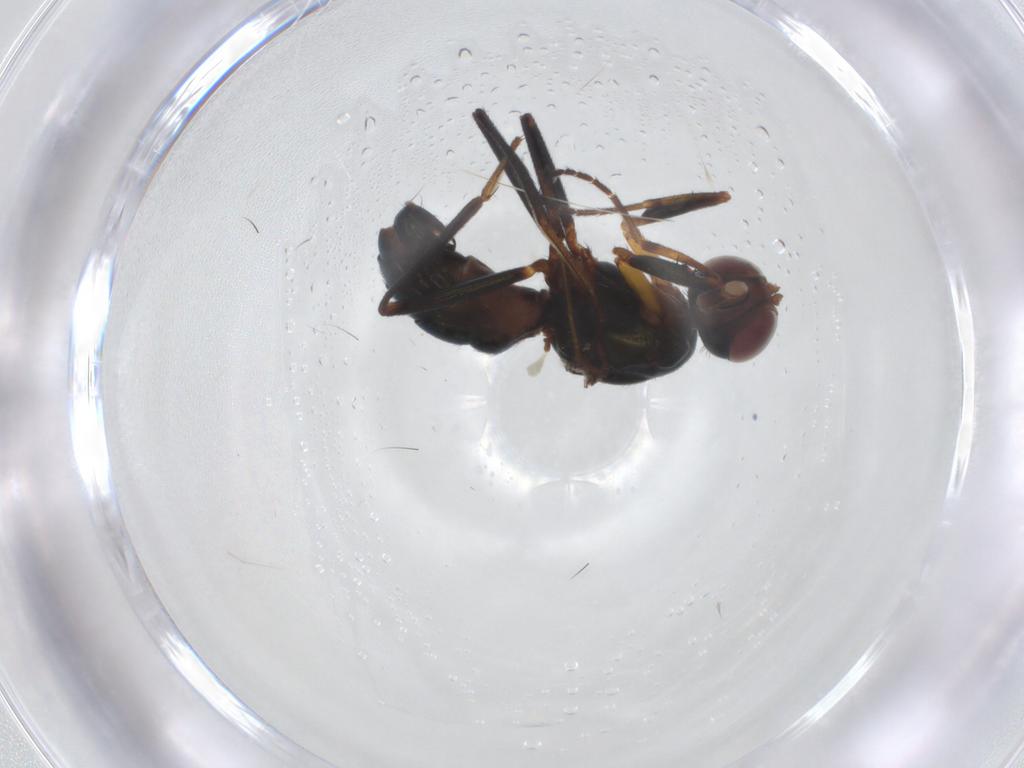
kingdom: Animalia
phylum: Arthropoda
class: Insecta
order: Diptera
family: Sepsidae
